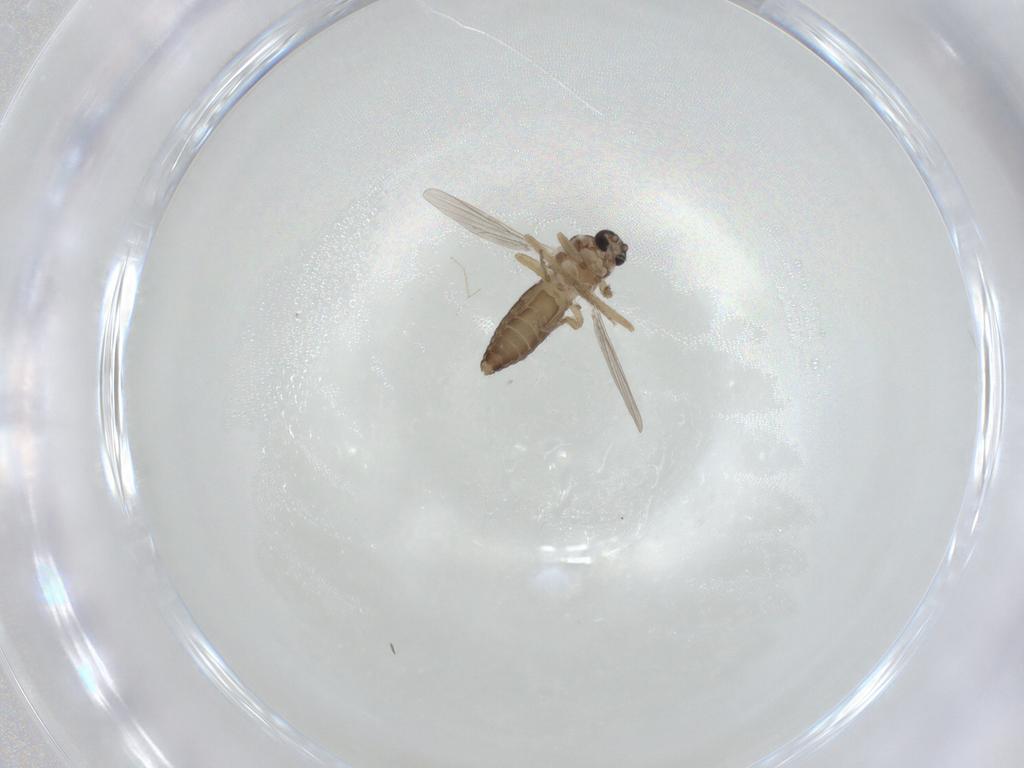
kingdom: Animalia
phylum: Arthropoda
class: Insecta
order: Diptera
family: Ceratopogonidae
